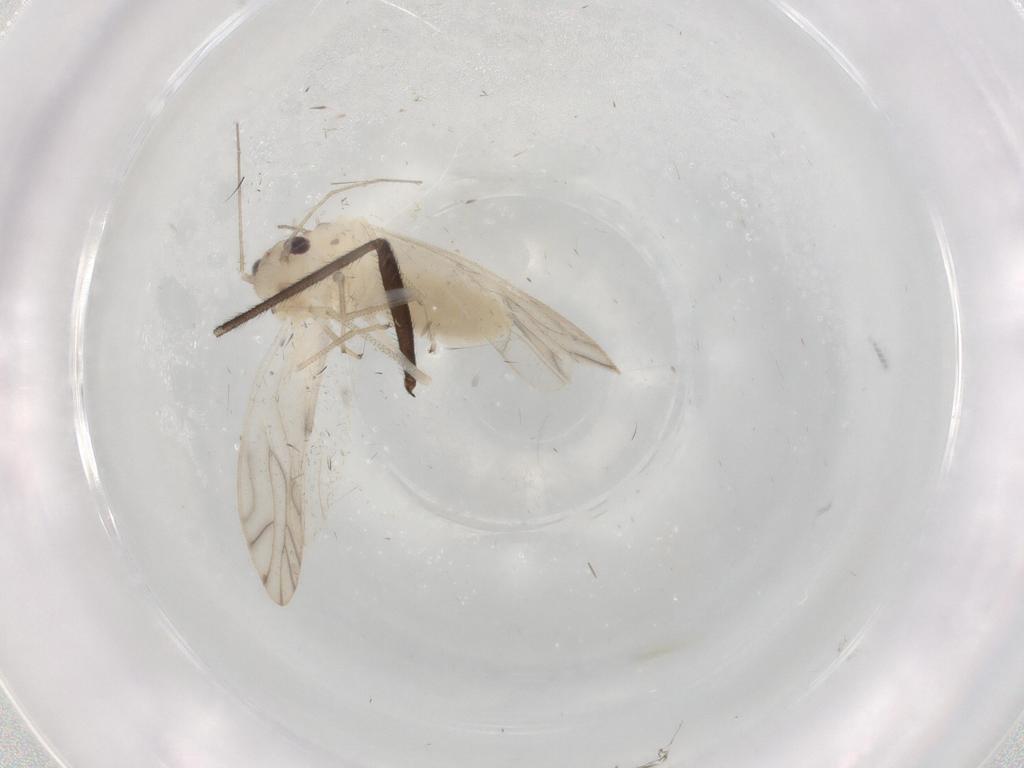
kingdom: Animalia
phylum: Arthropoda
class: Insecta
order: Psocodea
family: Caeciliusidae
